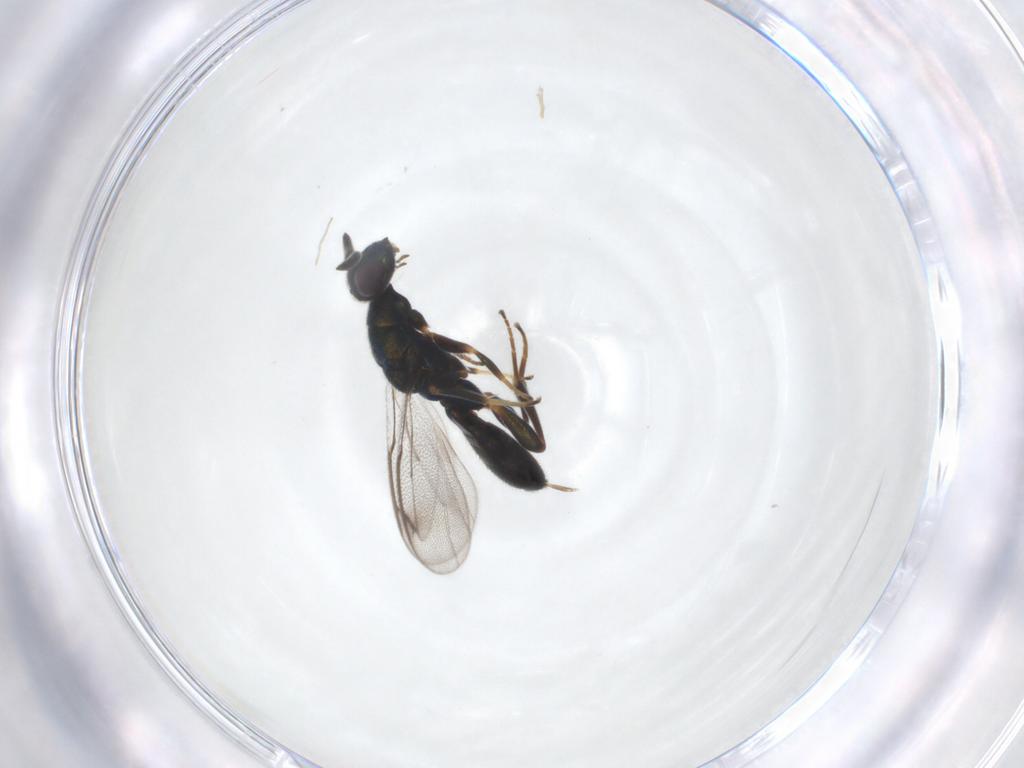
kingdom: Animalia
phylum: Arthropoda
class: Insecta
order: Hymenoptera
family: Cleonyminae
